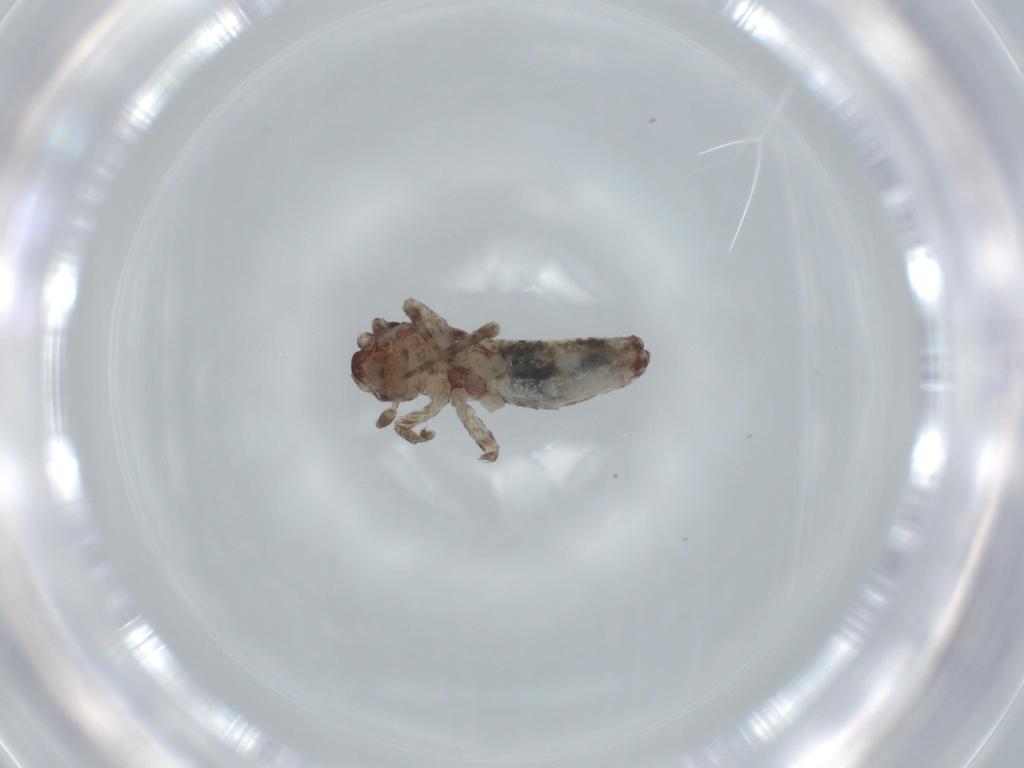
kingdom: Animalia
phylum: Arthropoda
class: Insecta
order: Orthoptera
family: Gryllidae
